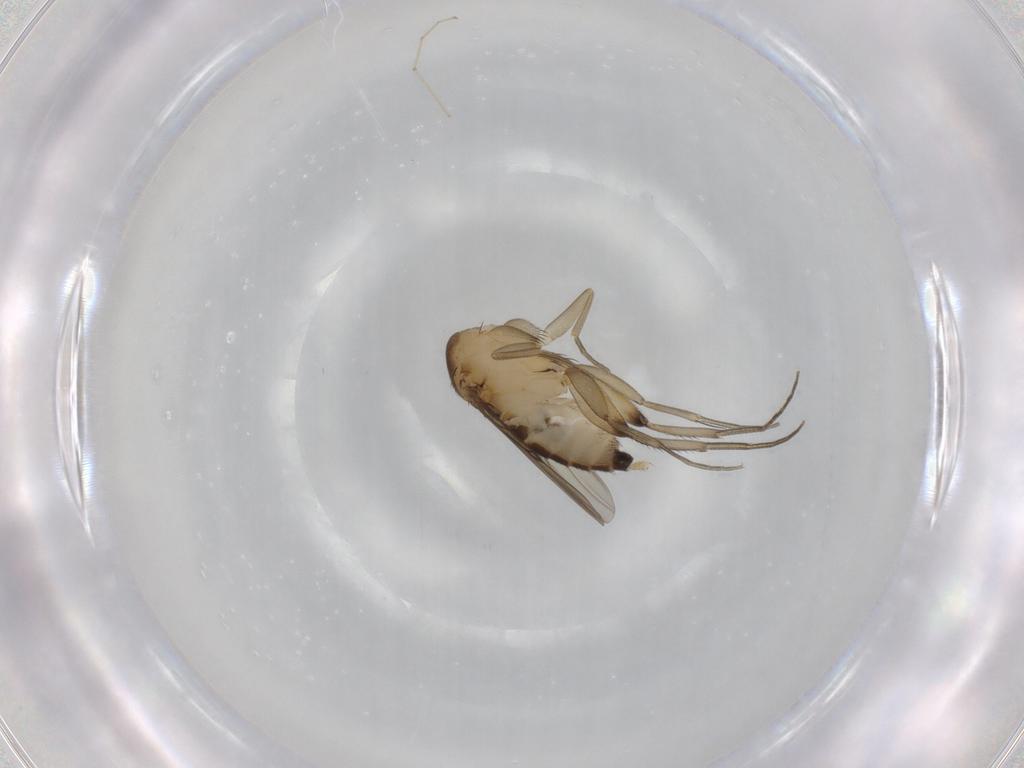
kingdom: Animalia
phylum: Arthropoda
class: Insecta
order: Diptera
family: Phoridae
